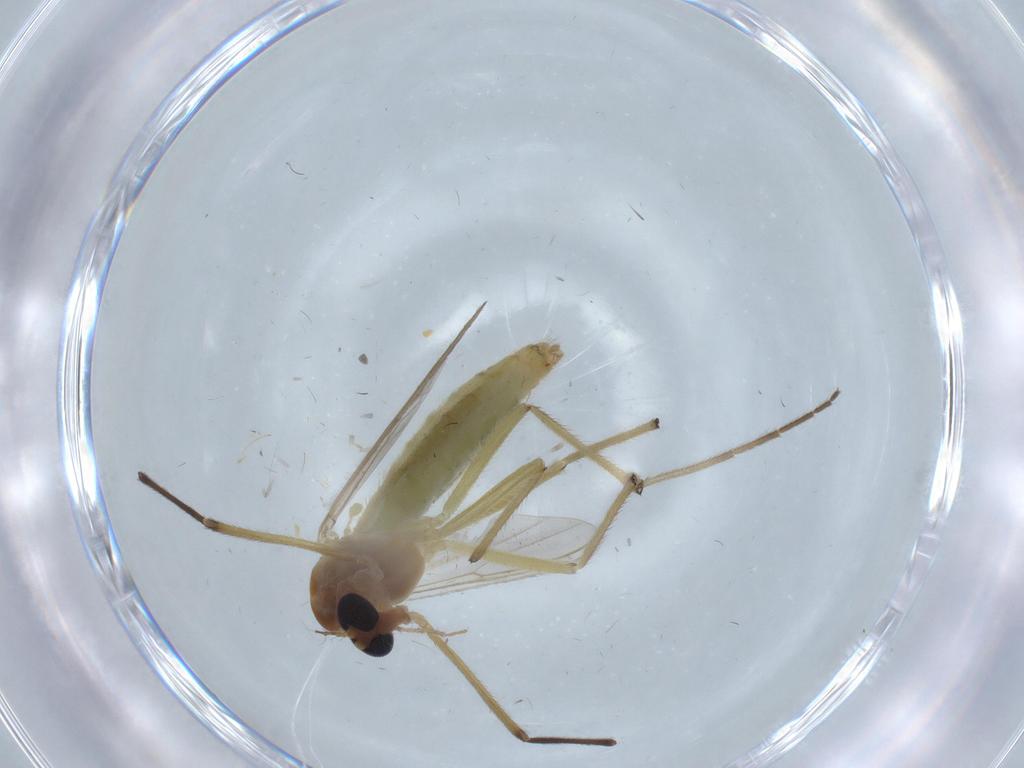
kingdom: Animalia
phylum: Arthropoda
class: Insecta
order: Diptera
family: Chironomidae
